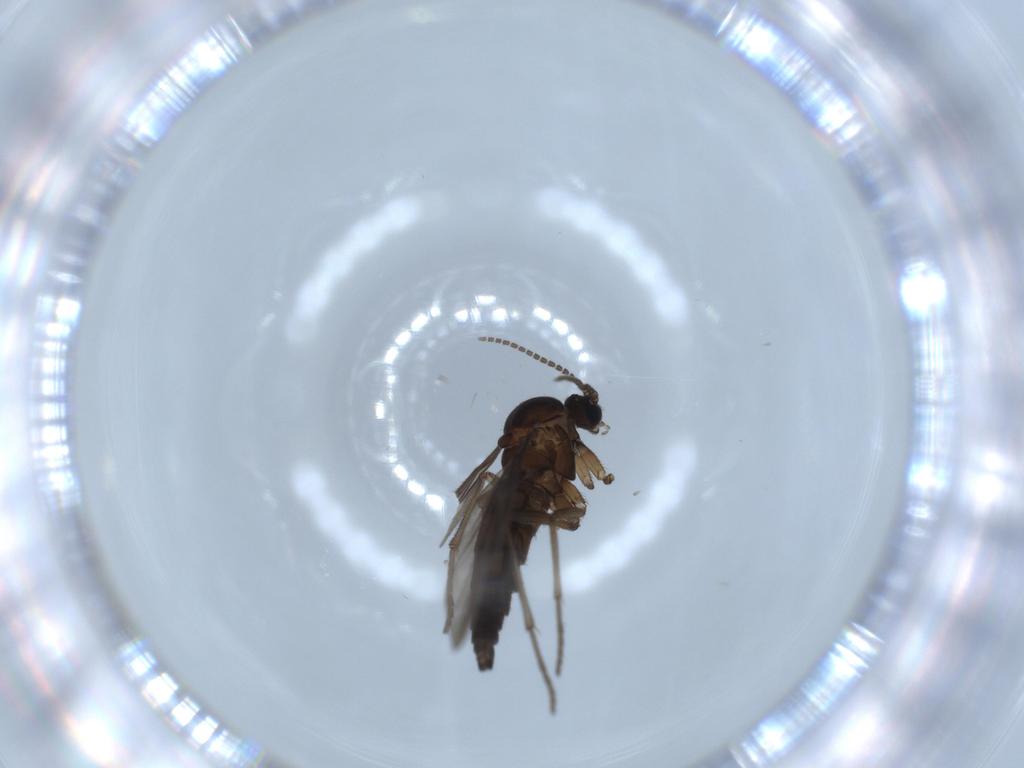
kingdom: Animalia
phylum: Arthropoda
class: Insecta
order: Diptera
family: Sciaridae
